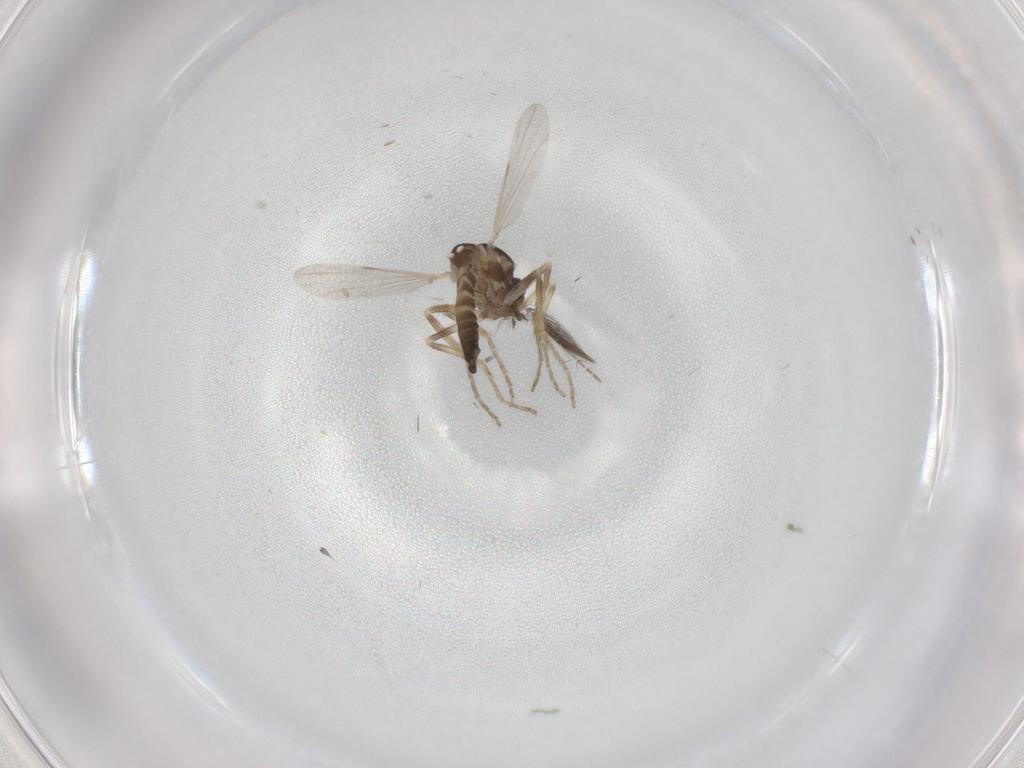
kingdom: Animalia
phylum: Arthropoda
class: Insecta
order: Diptera
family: Ceratopogonidae
